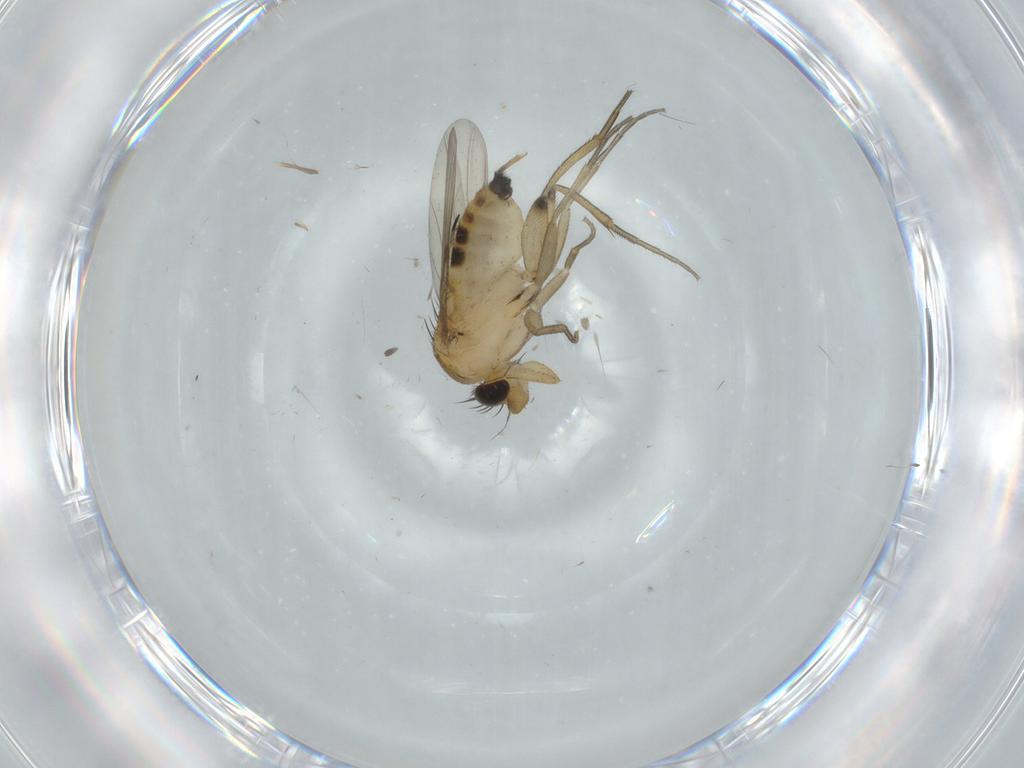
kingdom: Animalia
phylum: Arthropoda
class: Insecta
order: Diptera
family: Phoridae
